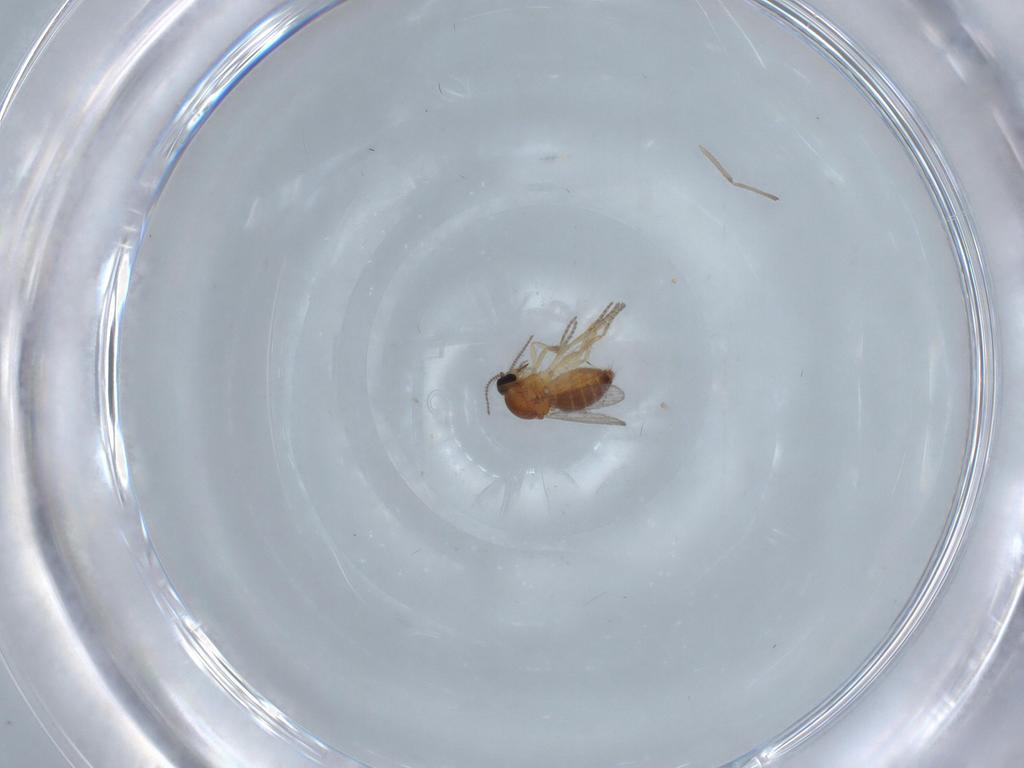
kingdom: Animalia
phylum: Arthropoda
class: Insecta
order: Diptera
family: Ceratopogonidae
